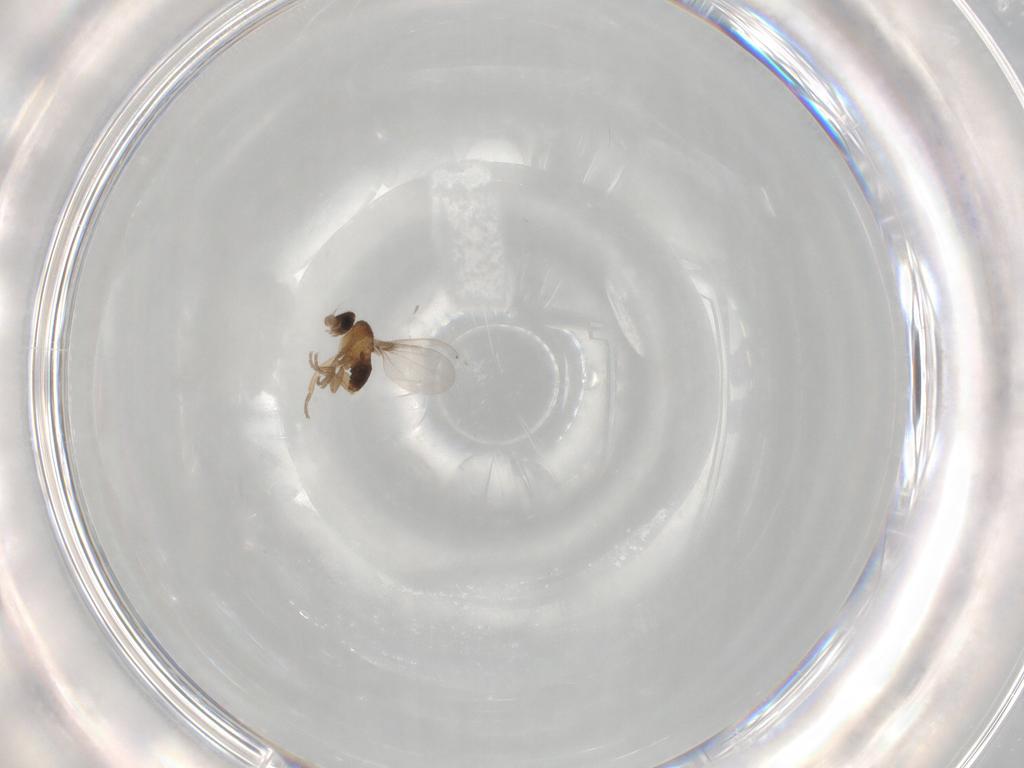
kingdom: Animalia
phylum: Arthropoda
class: Insecta
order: Diptera
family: Phoridae
